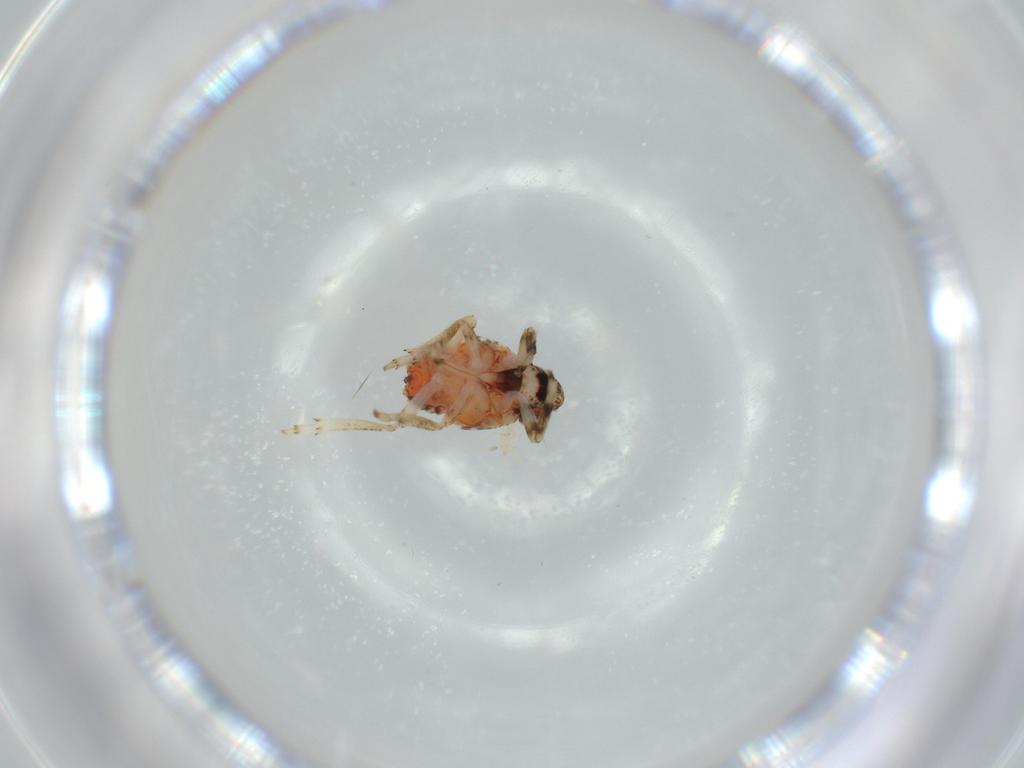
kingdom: Animalia
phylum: Arthropoda
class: Insecta
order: Hemiptera
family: Issidae
